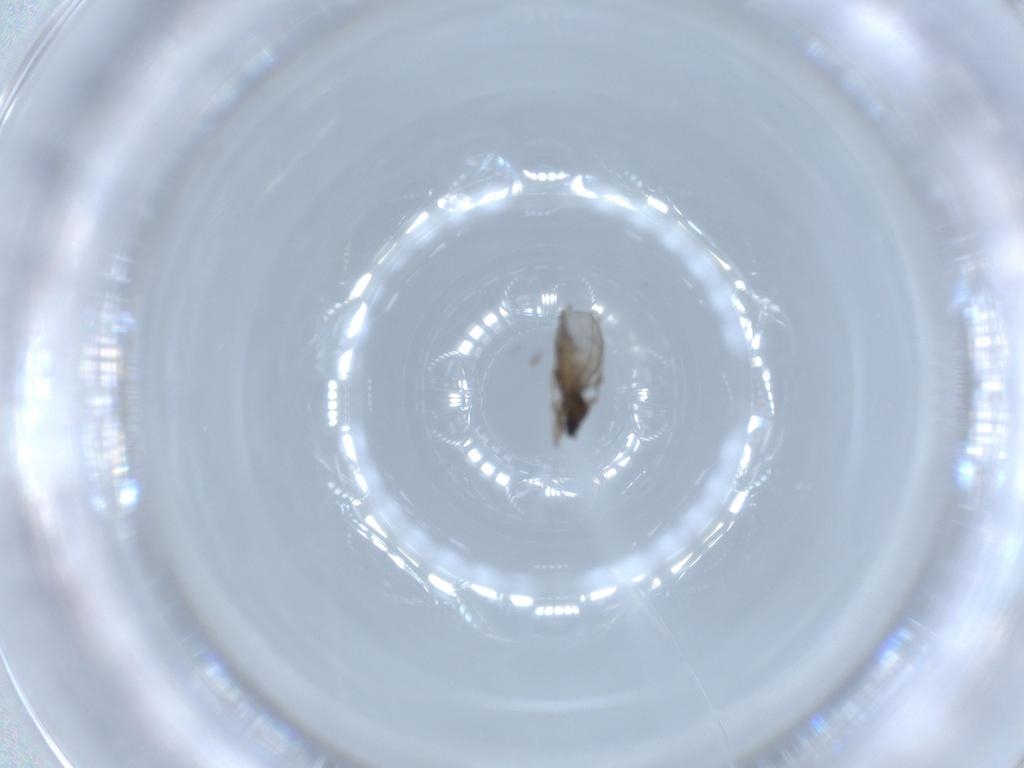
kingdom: Animalia
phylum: Arthropoda
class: Insecta
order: Diptera
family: Cecidomyiidae
